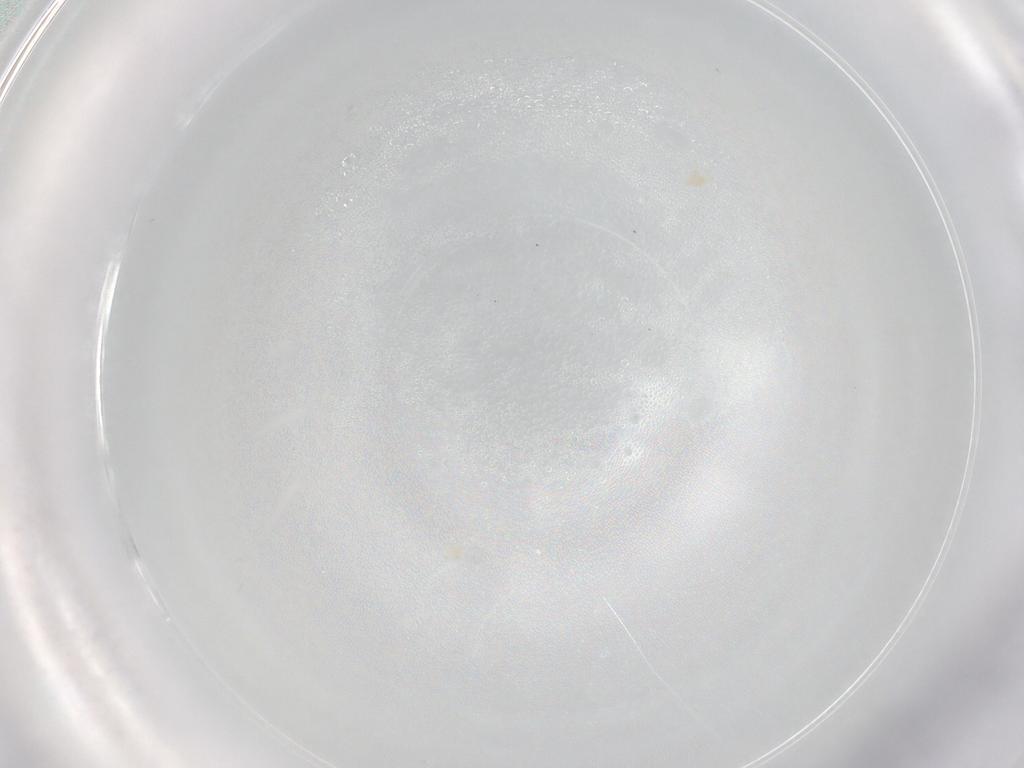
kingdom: Animalia
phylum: Arthropoda
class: Arachnida
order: Trombidiformes
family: Pygmephoridae
